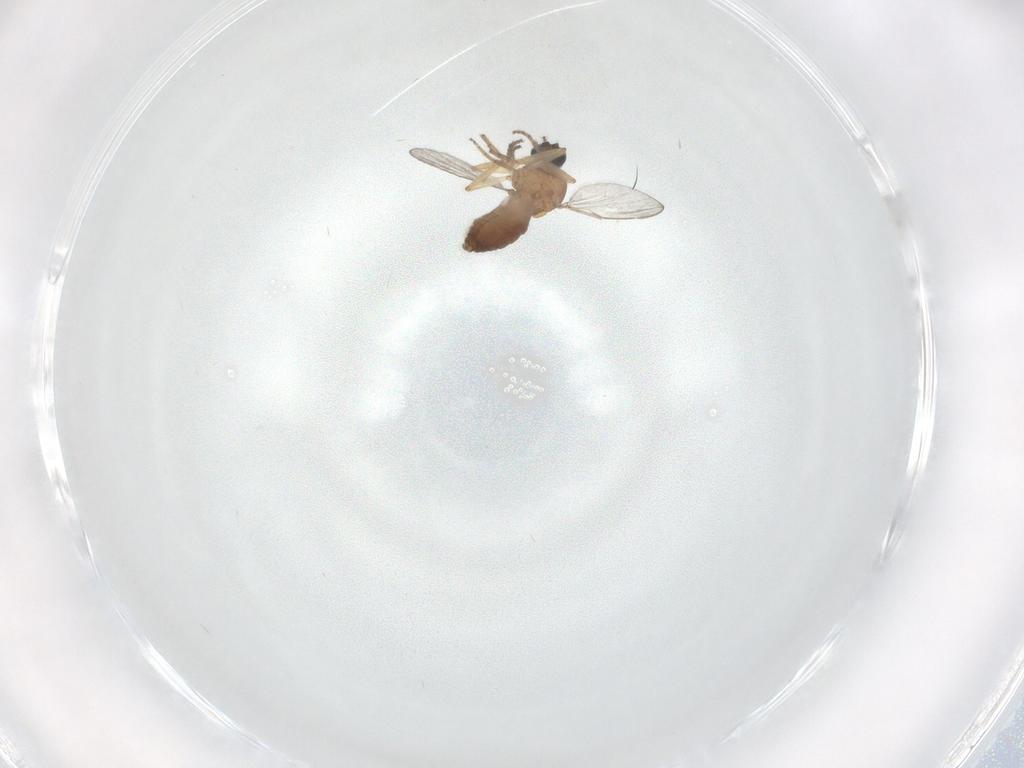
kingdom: Animalia
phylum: Arthropoda
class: Insecta
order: Diptera
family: Ceratopogonidae
